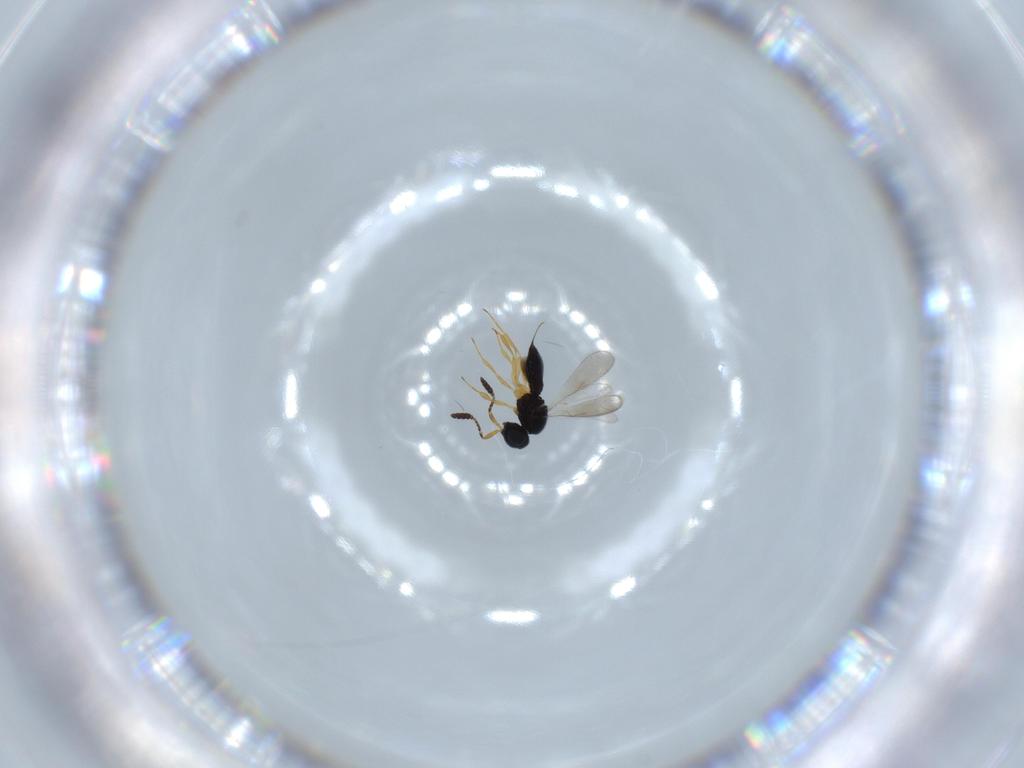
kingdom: Animalia
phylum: Arthropoda
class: Insecta
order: Hymenoptera
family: Scelionidae
